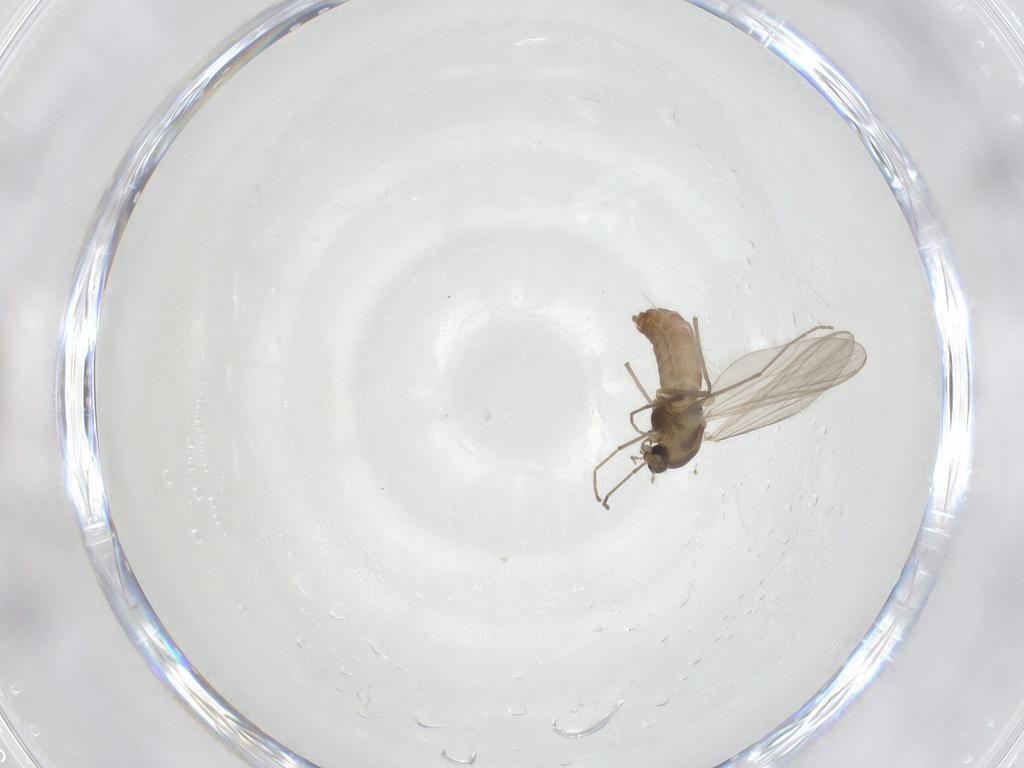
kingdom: Animalia
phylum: Arthropoda
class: Insecta
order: Diptera
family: Chironomidae
